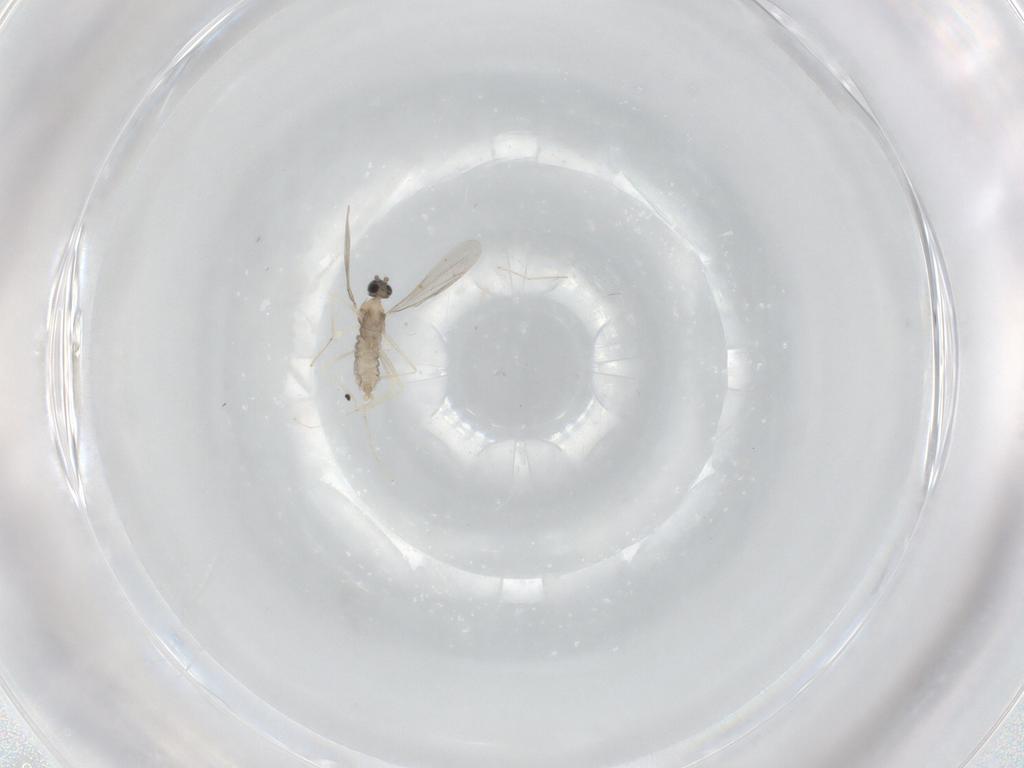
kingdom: Animalia
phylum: Arthropoda
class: Insecta
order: Diptera
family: Cecidomyiidae
